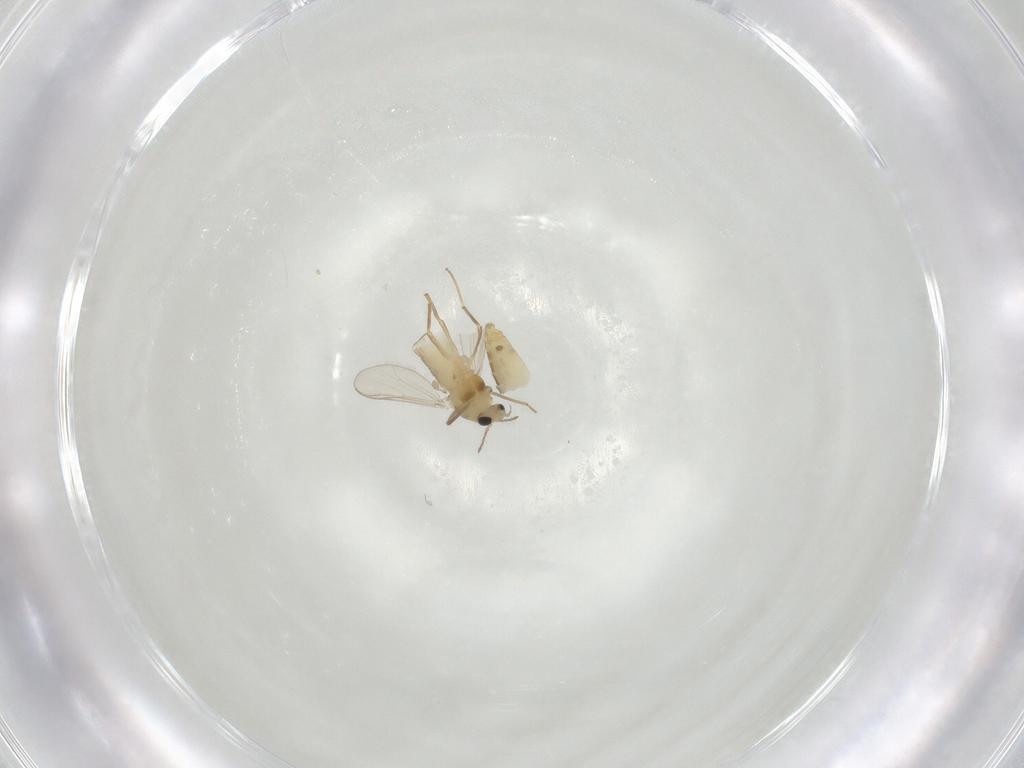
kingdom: Animalia
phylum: Arthropoda
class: Insecta
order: Diptera
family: Chironomidae
